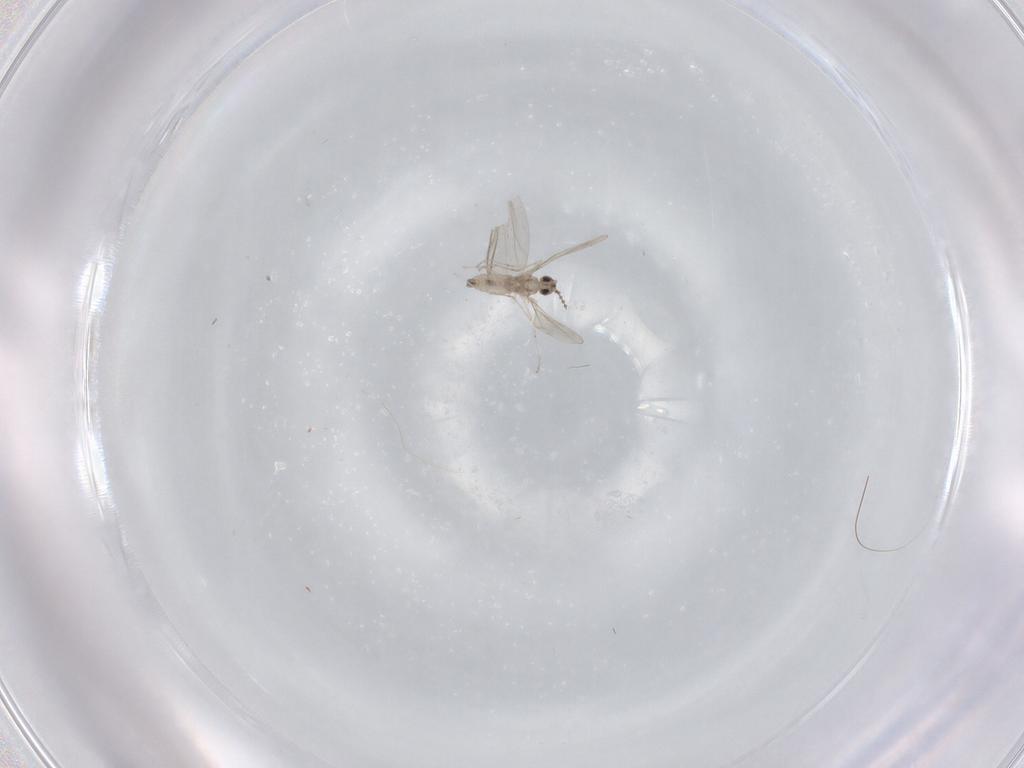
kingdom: Animalia
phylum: Arthropoda
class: Insecta
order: Diptera
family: Cecidomyiidae
